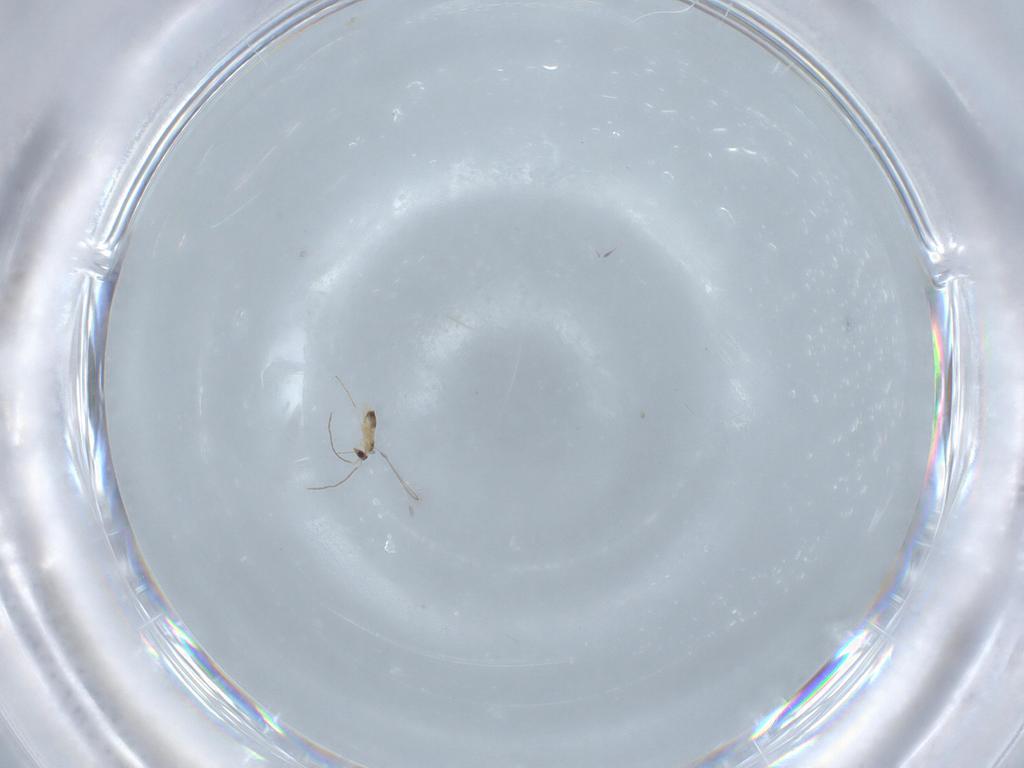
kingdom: Animalia
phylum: Arthropoda
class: Insecta
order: Hymenoptera
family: Mymaridae
